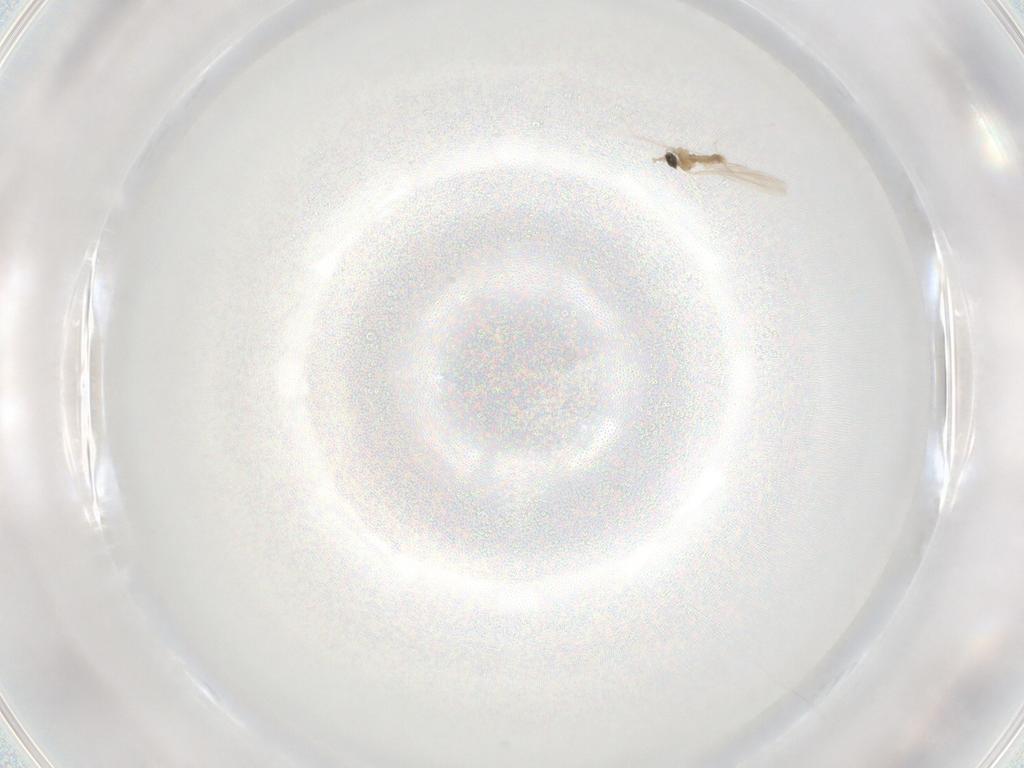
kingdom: Animalia
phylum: Arthropoda
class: Insecta
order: Diptera
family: Cecidomyiidae
